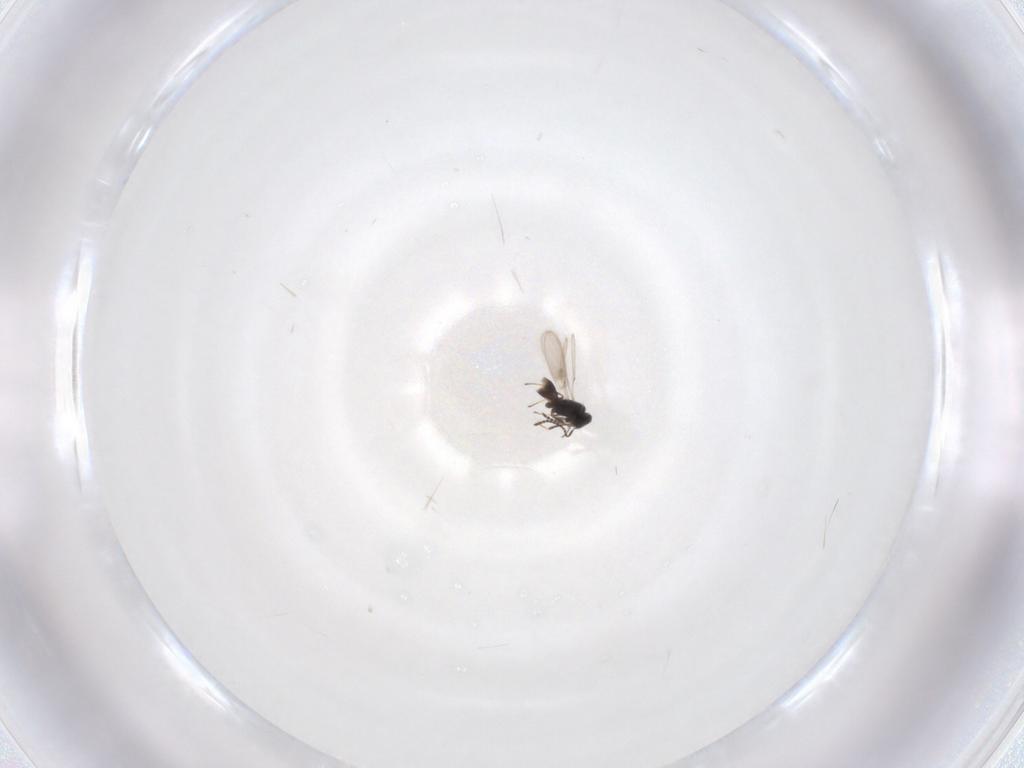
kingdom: Animalia
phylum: Arthropoda
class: Insecta
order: Hymenoptera
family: Scelionidae
